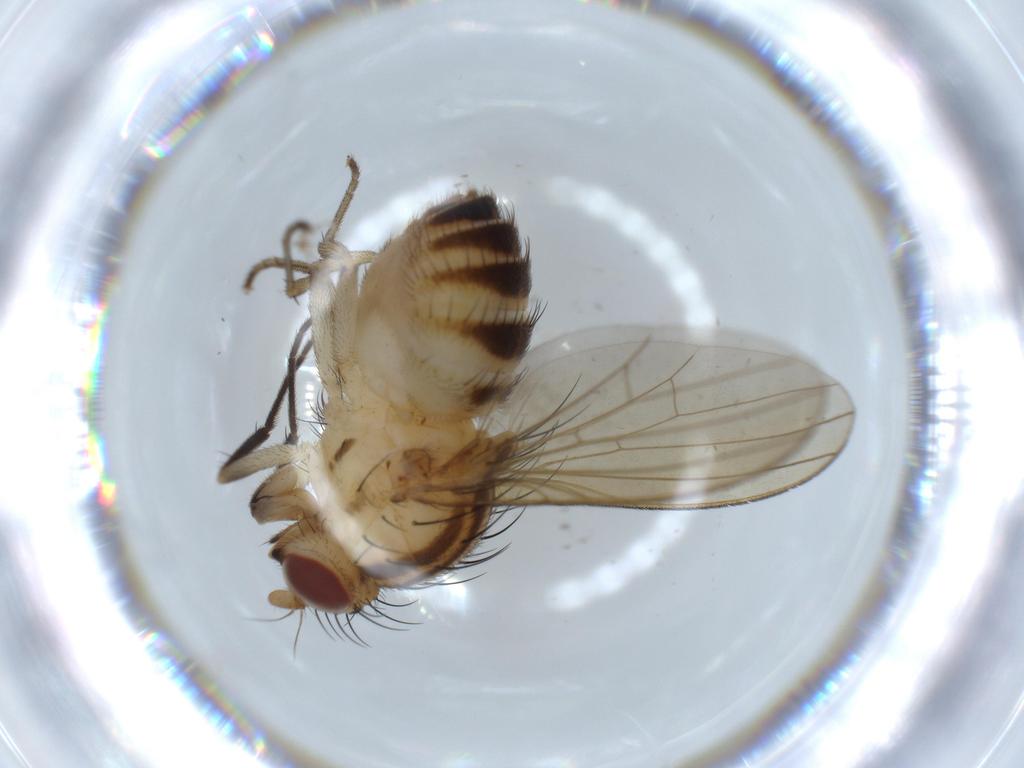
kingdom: Animalia
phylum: Arthropoda
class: Insecta
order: Diptera
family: Lauxaniidae
